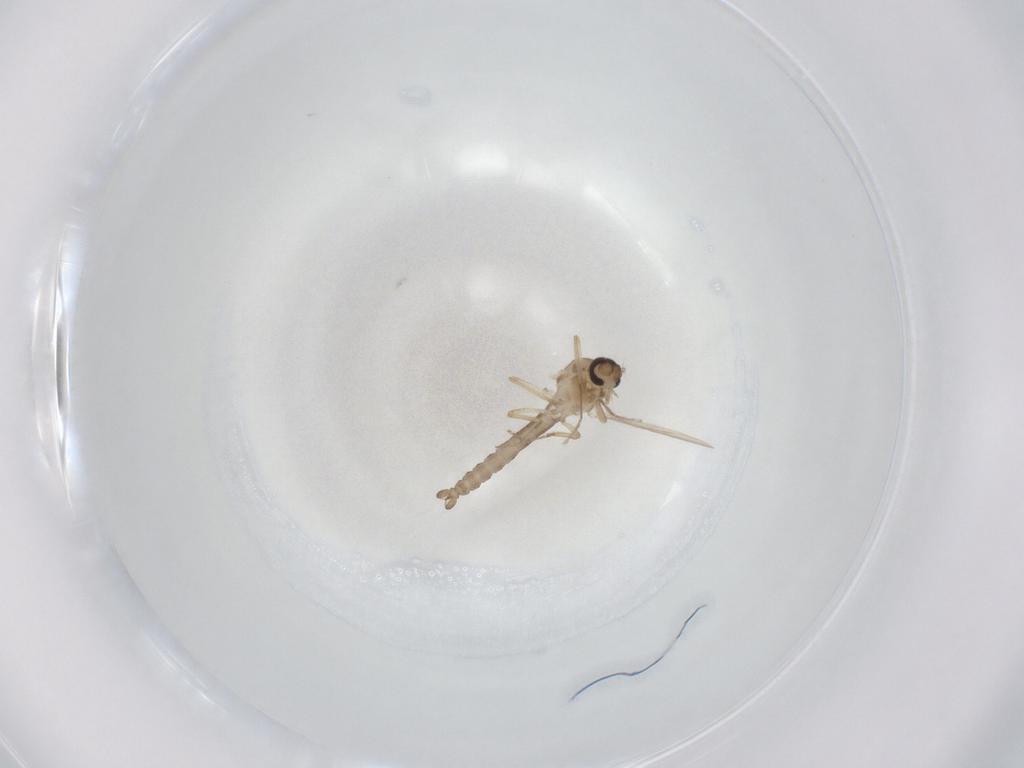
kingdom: Animalia
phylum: Arthropoda
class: Insecta
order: Diptera
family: Ceratopogonidae
